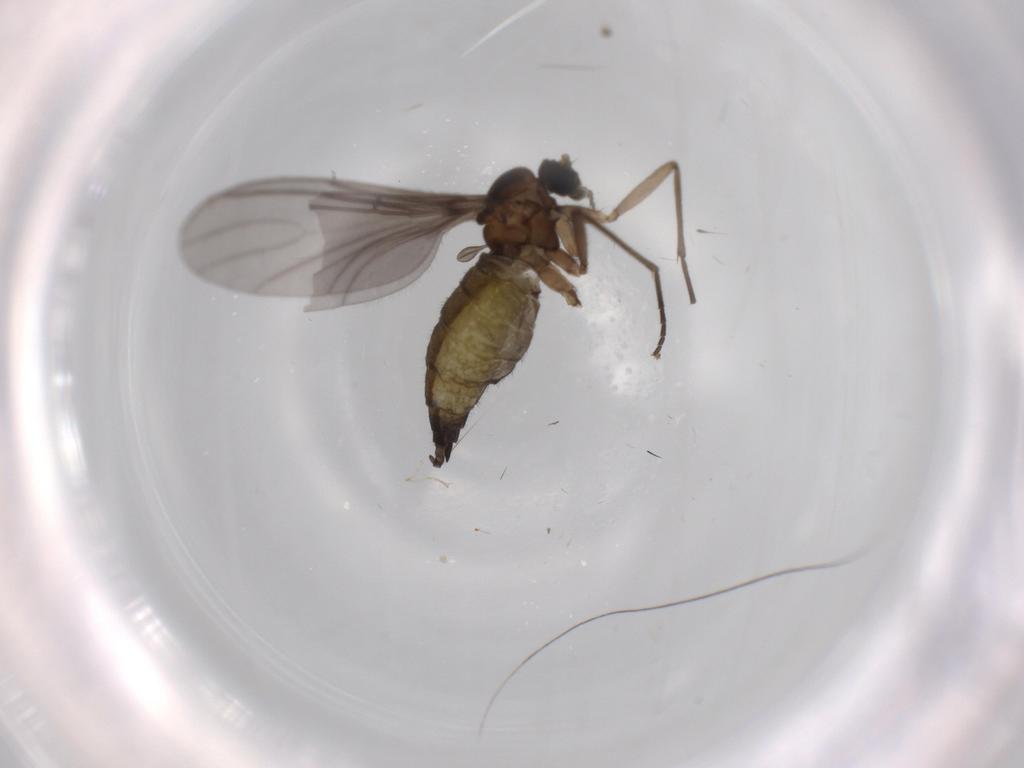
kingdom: Animalia
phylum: Arthropoda
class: Insecta
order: Diptera
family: Sciaridae
